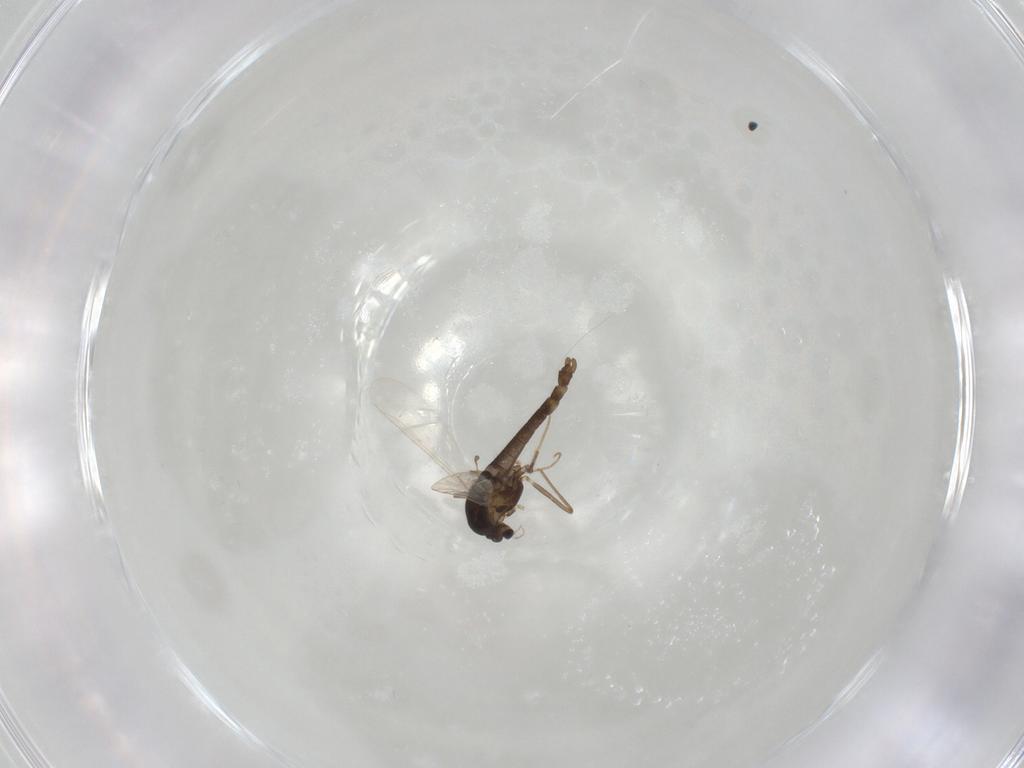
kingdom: Animalia
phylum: Arthropoda
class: Insecta
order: Diptera
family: Chironomidae
